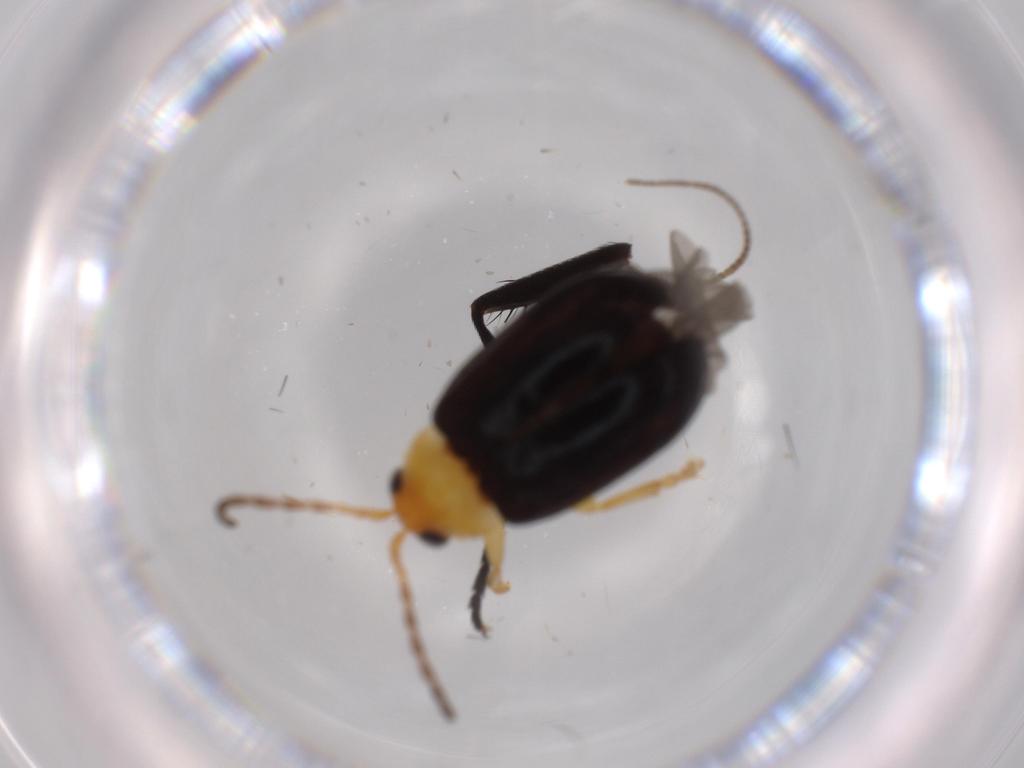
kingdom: Animalia
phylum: Arthropoda
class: Insecta
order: Coleoptera
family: Chrysomelidae
